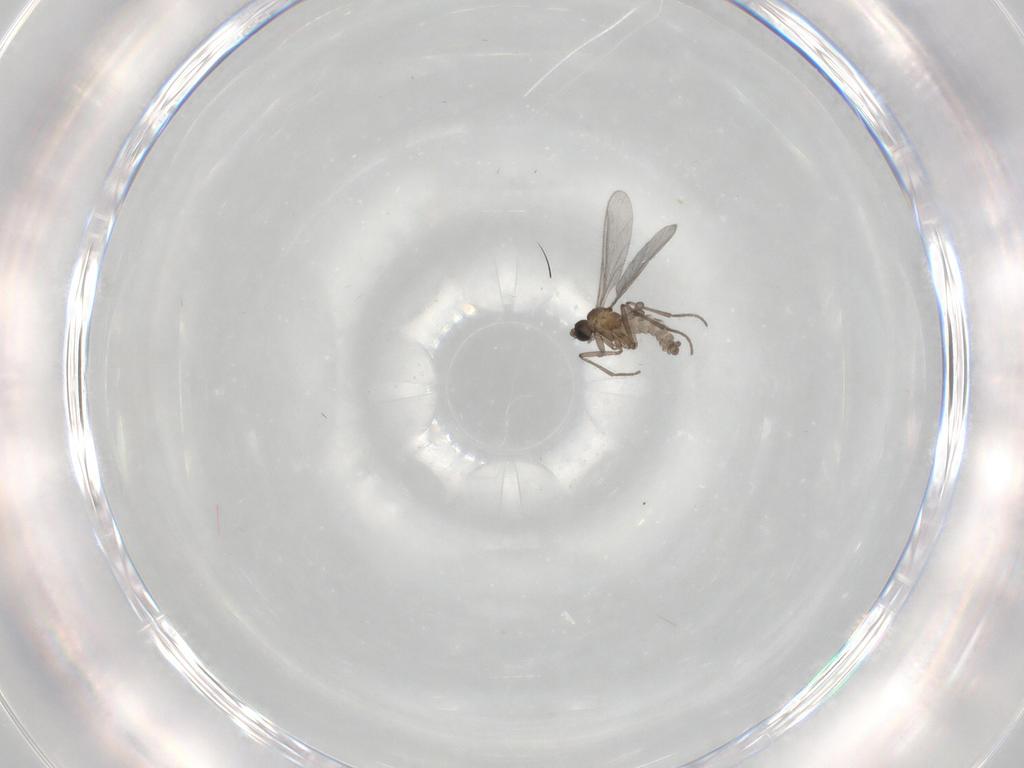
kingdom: Animalia
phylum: Arthropoda
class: Insecta
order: Diptera
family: Sciaridae
